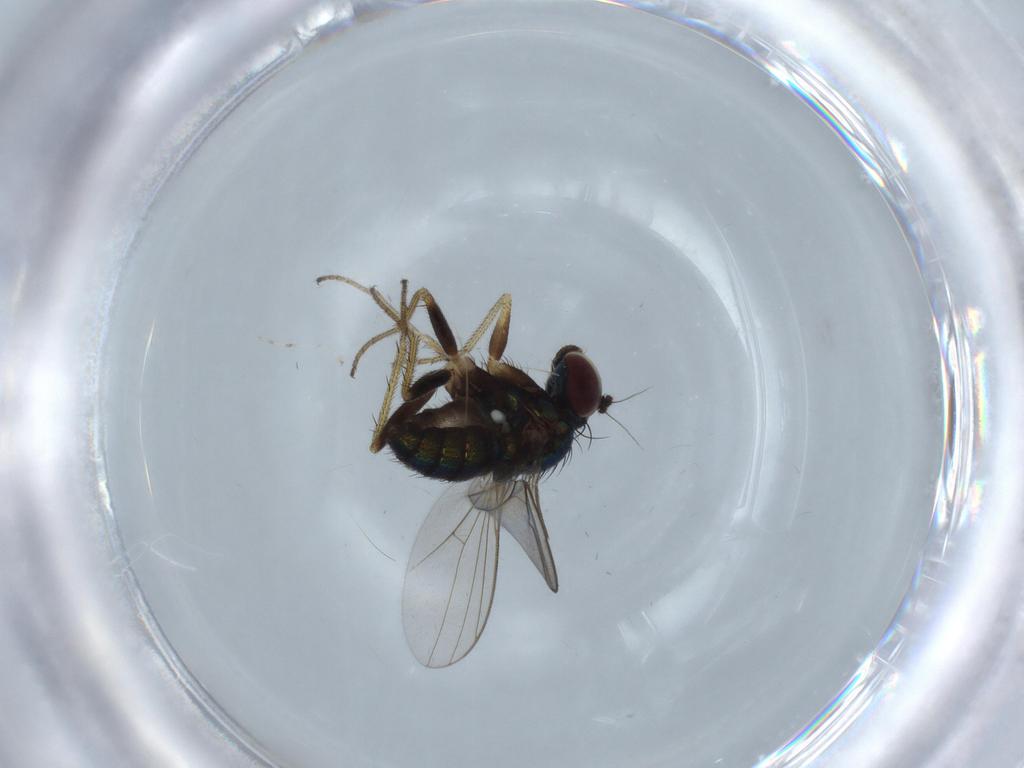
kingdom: Animalia
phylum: Arthropoda
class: Insecta
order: Diptera
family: Dolichopodidae
